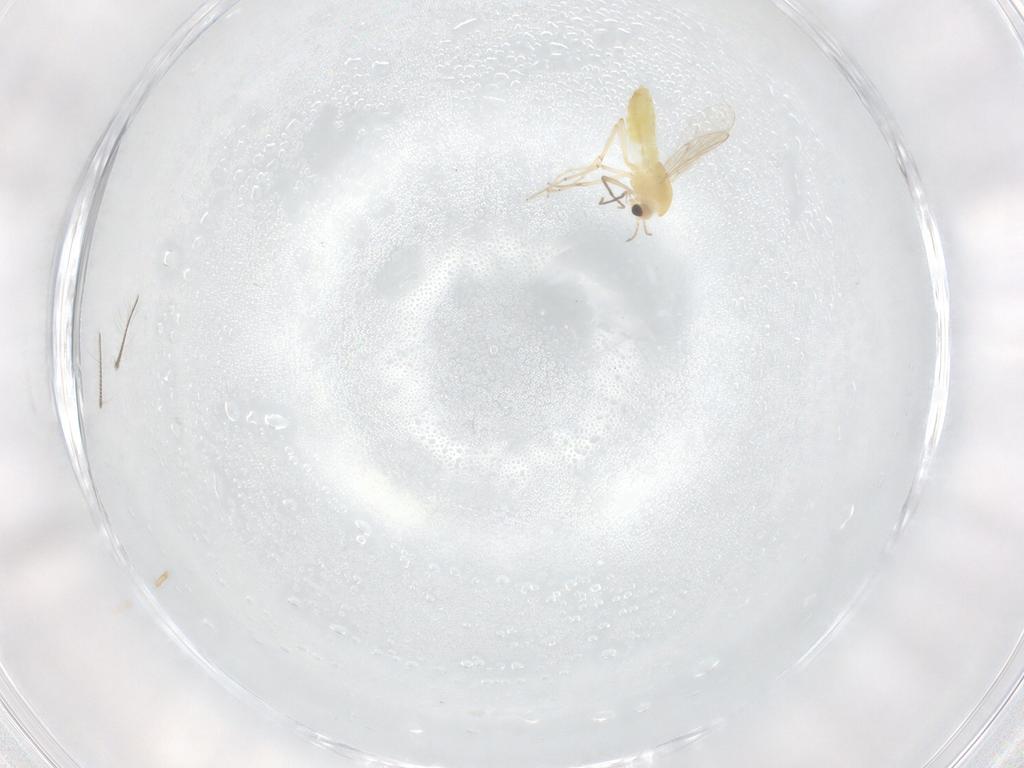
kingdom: Animalia
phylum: Arthropoda
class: Insecta
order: Diptera
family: Chironomidae
